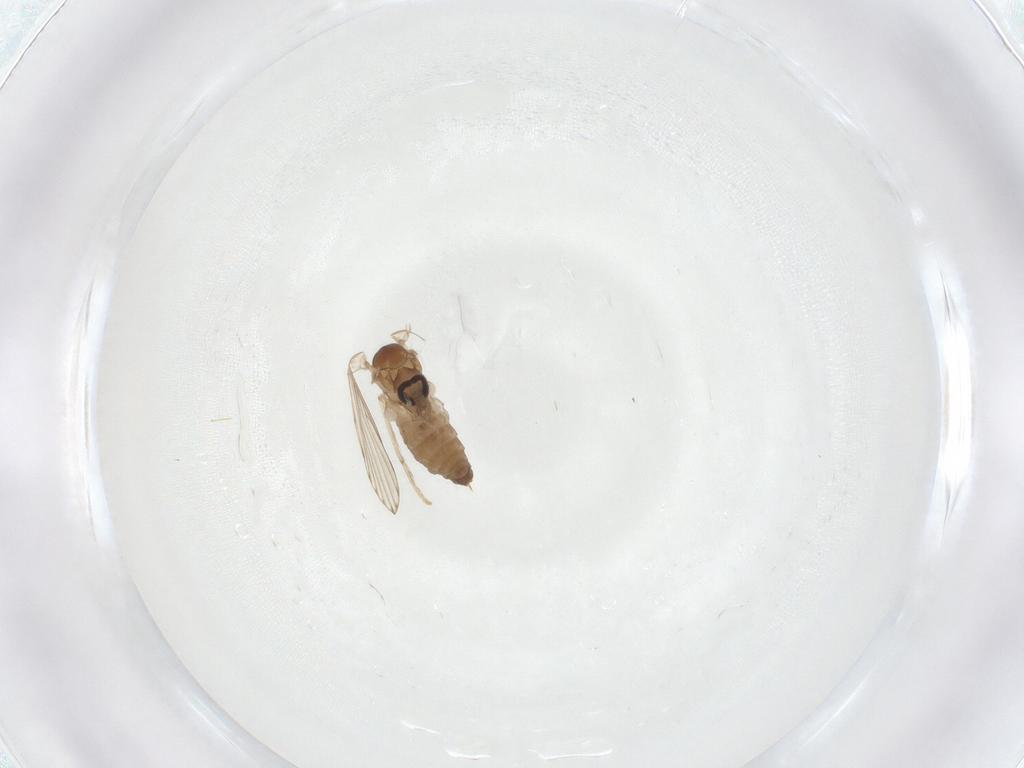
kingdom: Animalia
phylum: Arthropoda
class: Insecta
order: Diptera
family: Psychodidae
